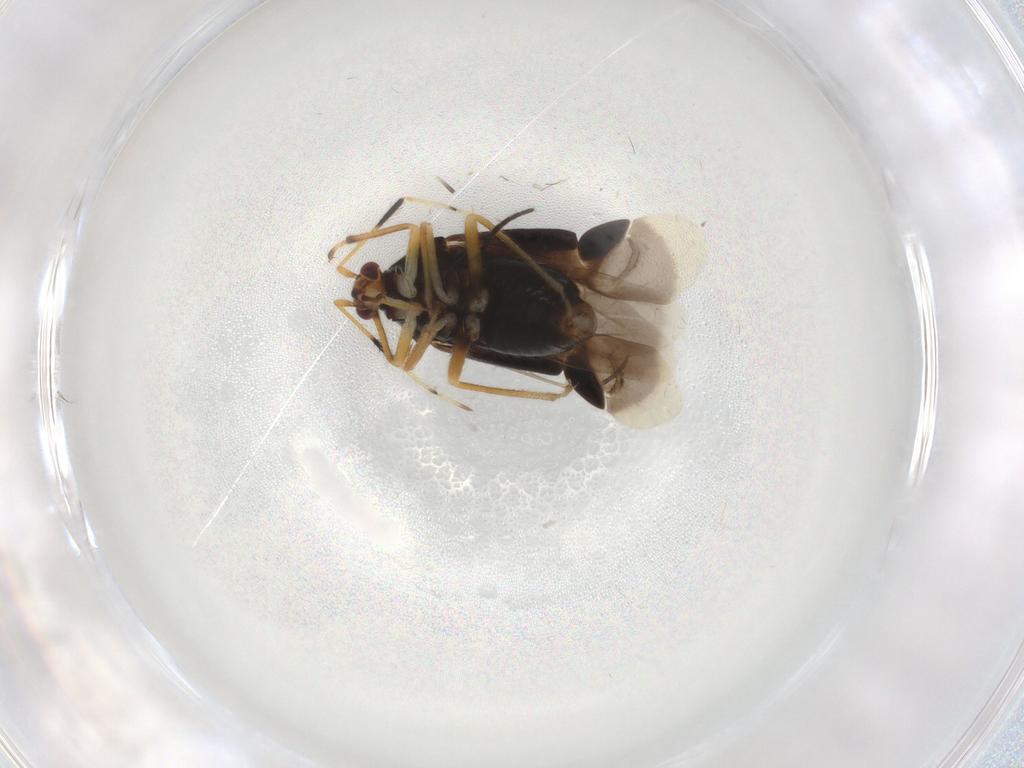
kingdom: Animalia
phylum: Arthropoda
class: Insecta
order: Hemiptera
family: Miridae
